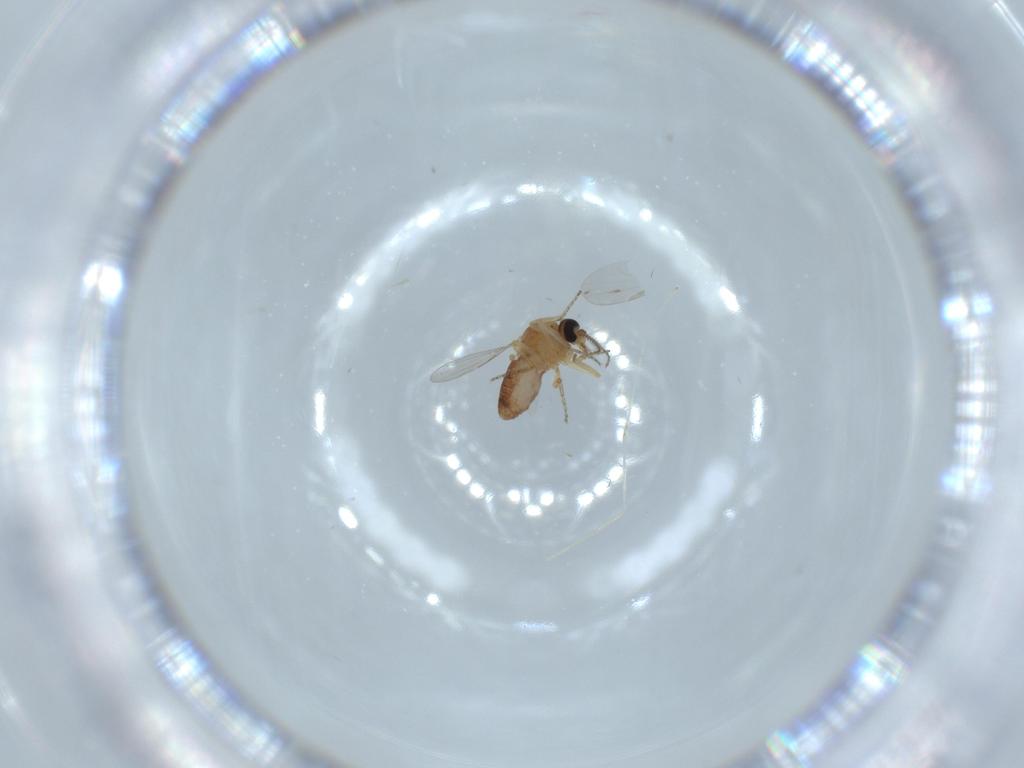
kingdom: Animalia
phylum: Arthropoda
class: Insecta
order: Diptera
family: Ceratopogonidae
